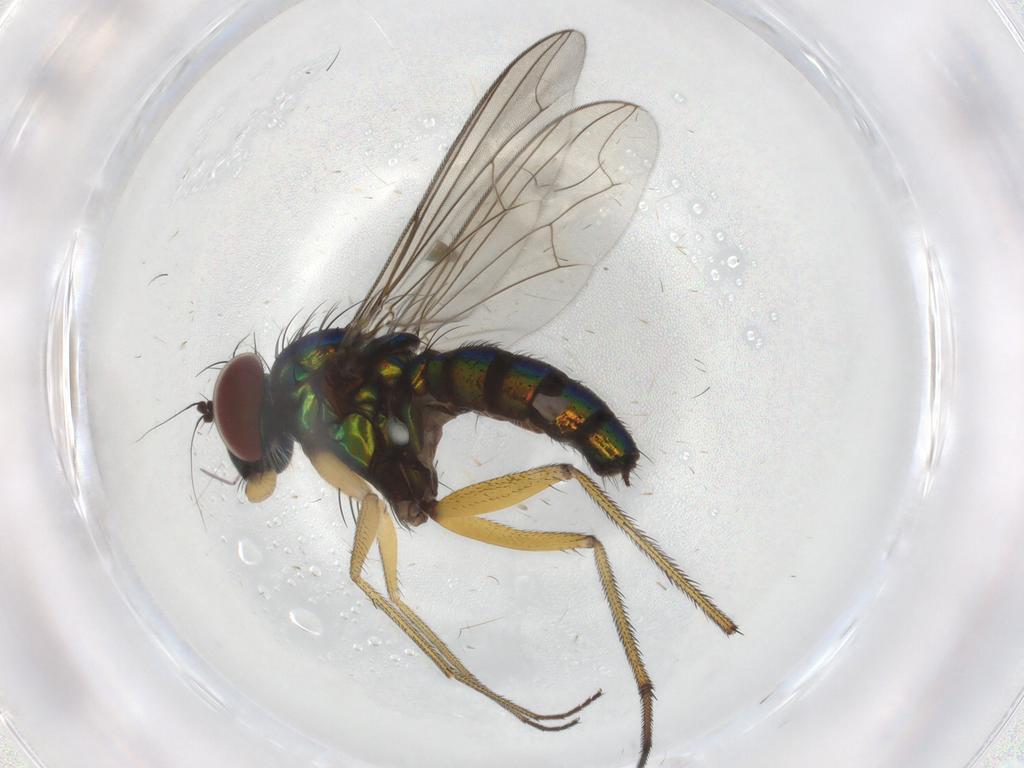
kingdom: Animalia
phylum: Arthropoda
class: Insecta
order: Diptera
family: Dolichopodidae
